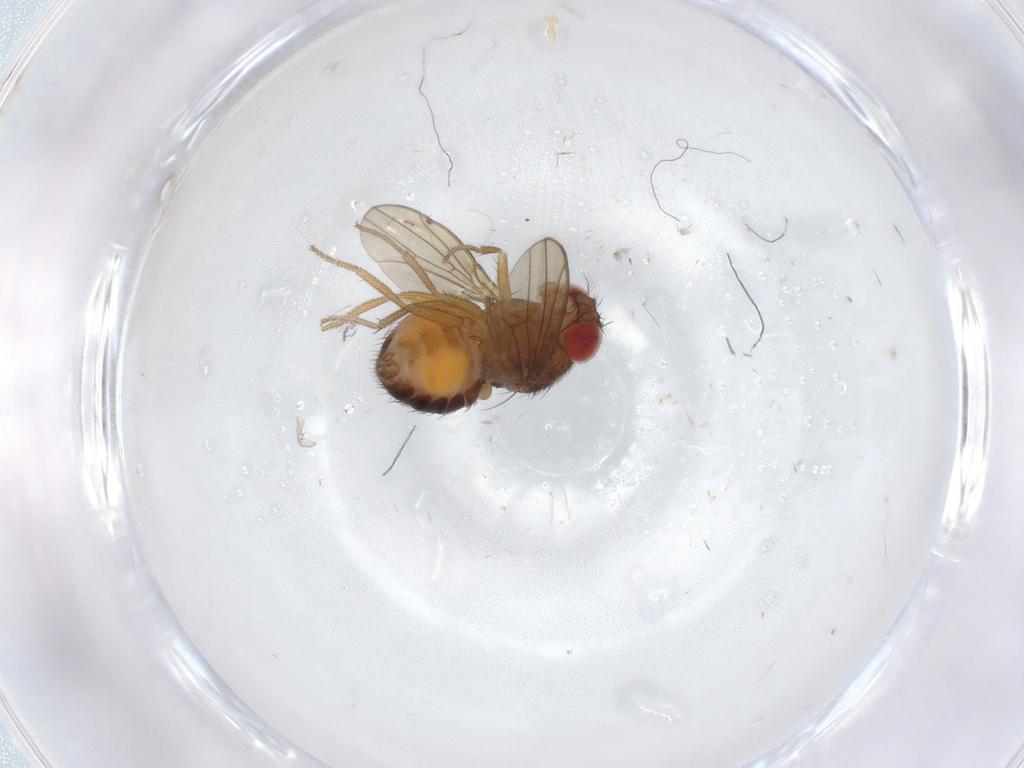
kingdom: Animalia
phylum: Arthropoda
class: Insecta
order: Diptera
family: Drosophilidae
